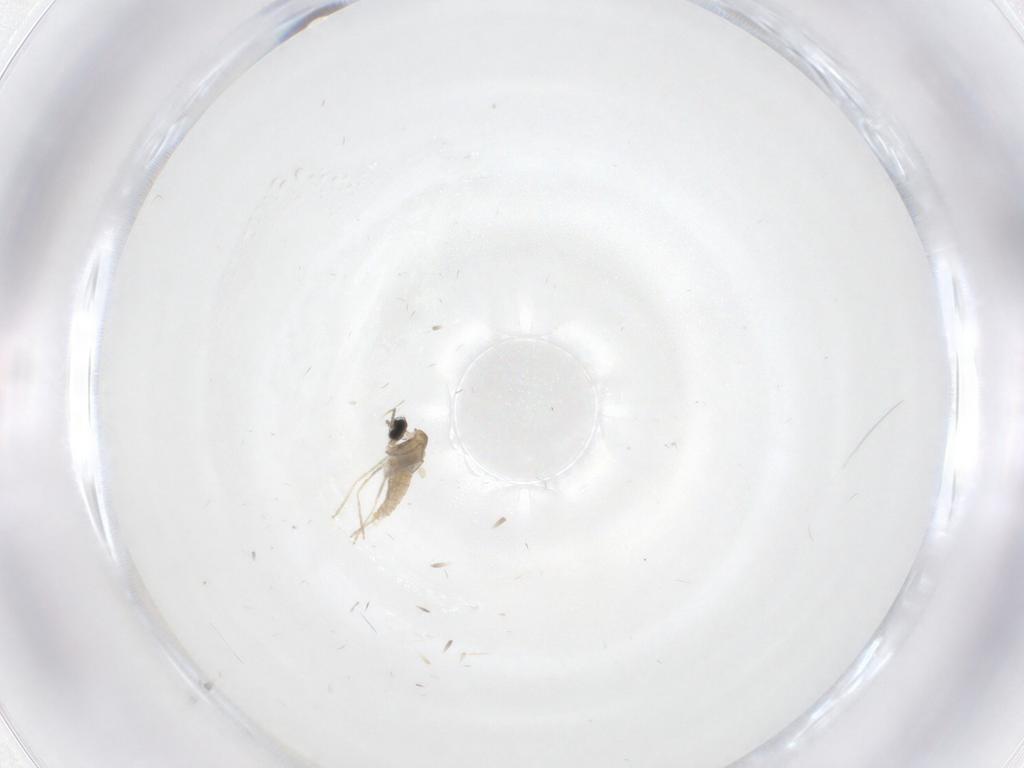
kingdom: Animalia
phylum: Arthropoda
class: Insecta
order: Diptera
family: Cecidomyiidae
